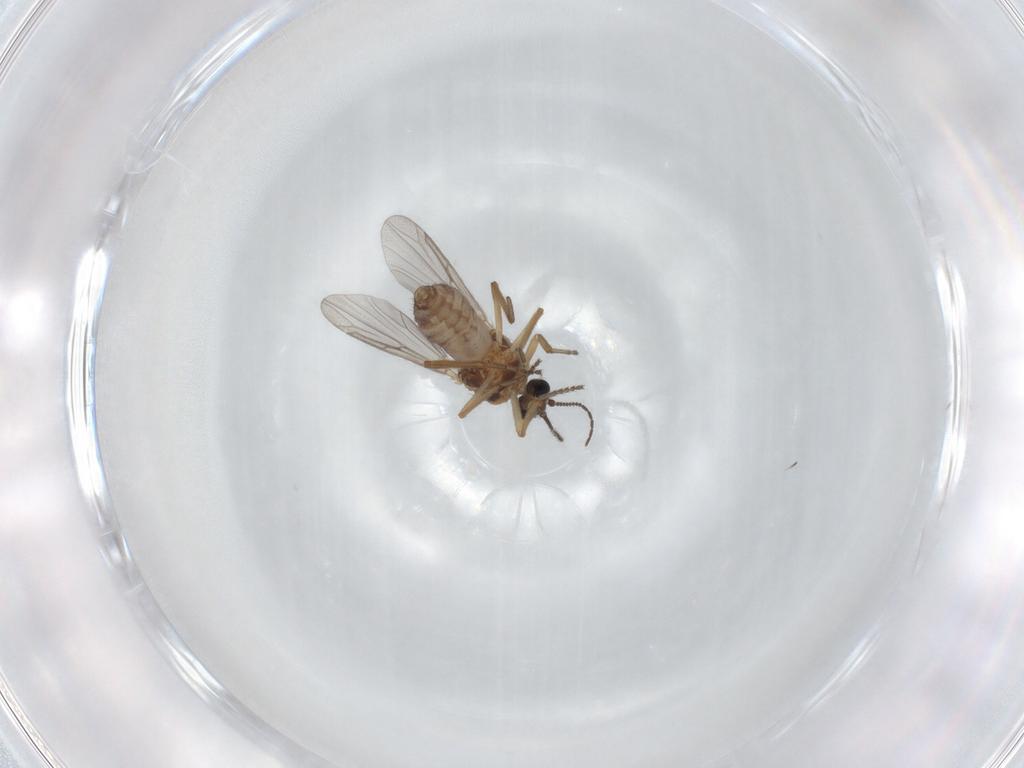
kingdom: Animalia
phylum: Arthropoda
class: Insecta
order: Diptera
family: Ceratopogonidae
